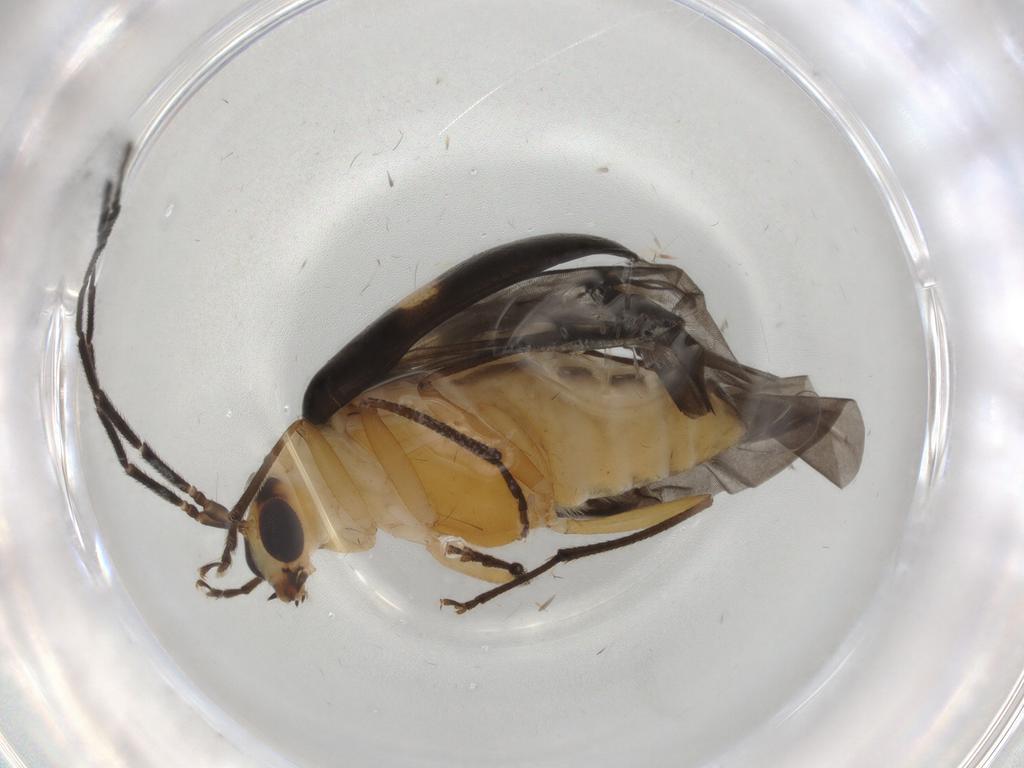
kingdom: Animalia
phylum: Arthropoda
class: Insecta
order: Coleoptera
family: Chrysomelidae
